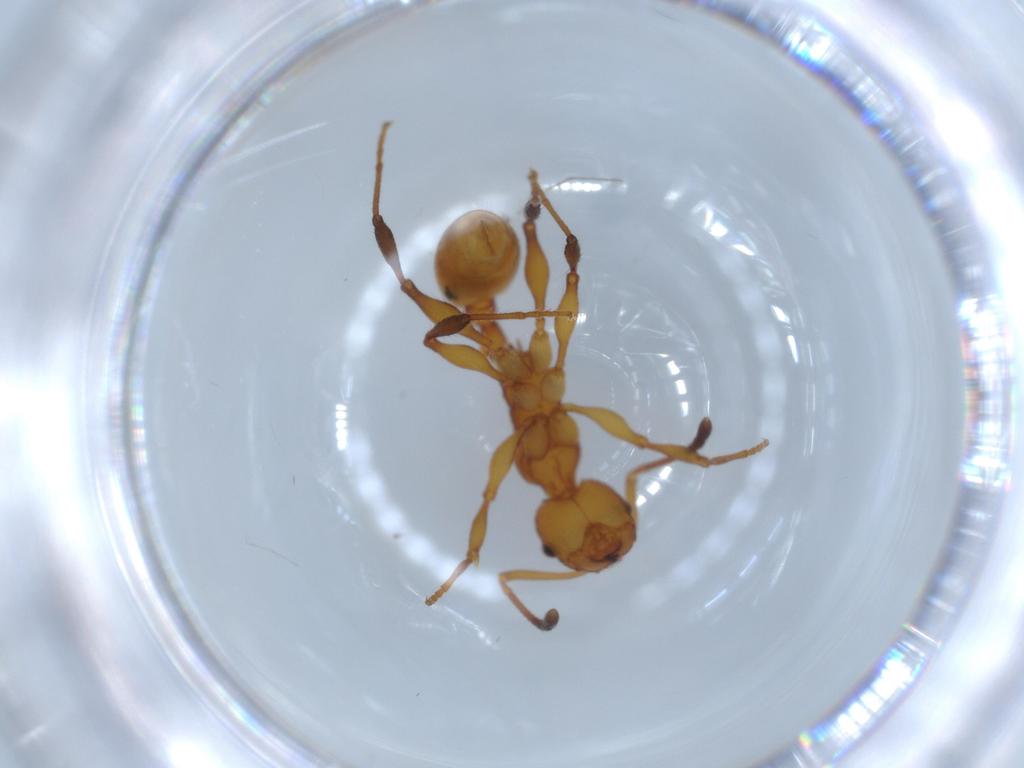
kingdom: Animalia
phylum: Arthropoda
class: Insecta
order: Hymenoptera
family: Formicidae
